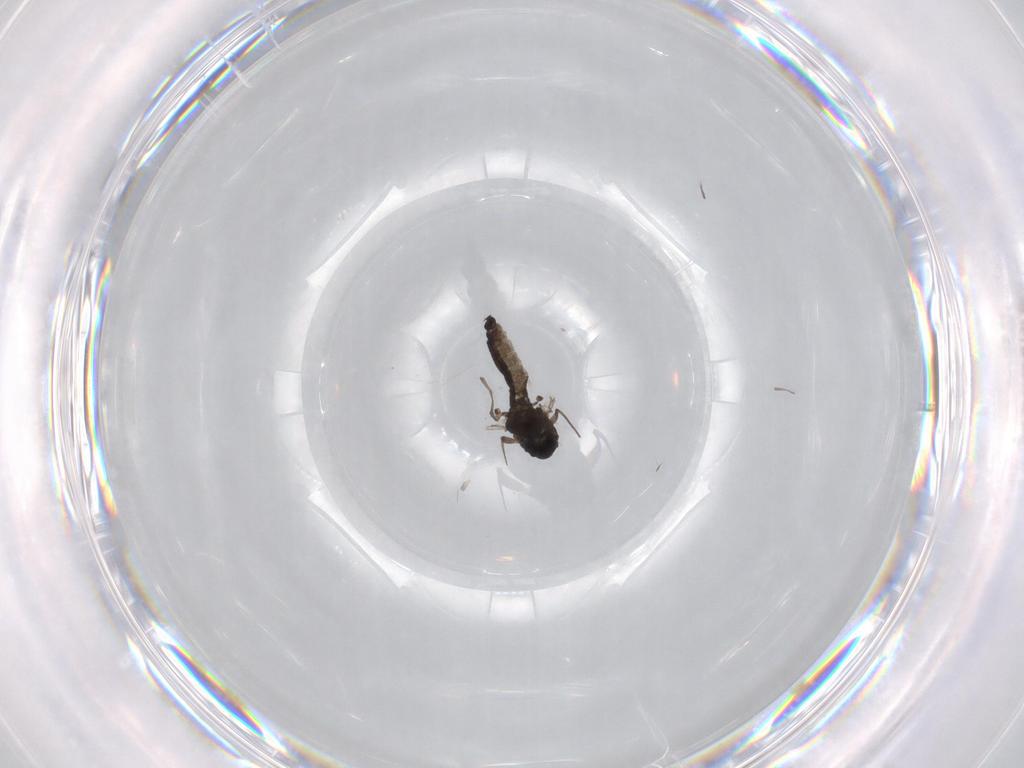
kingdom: Animalia
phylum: Arthropoda
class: Insecta
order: Diptera
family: Chironomidae
